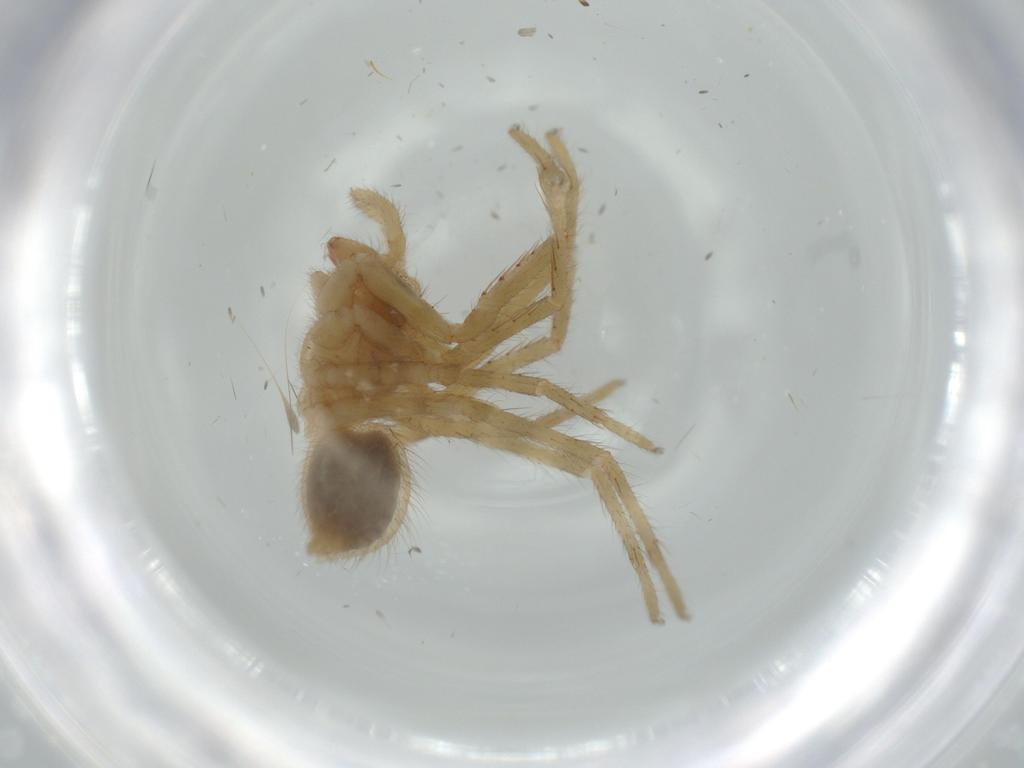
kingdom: Animalia
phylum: Arthropoda
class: Arachnida
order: Araneae
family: Ctenidae
